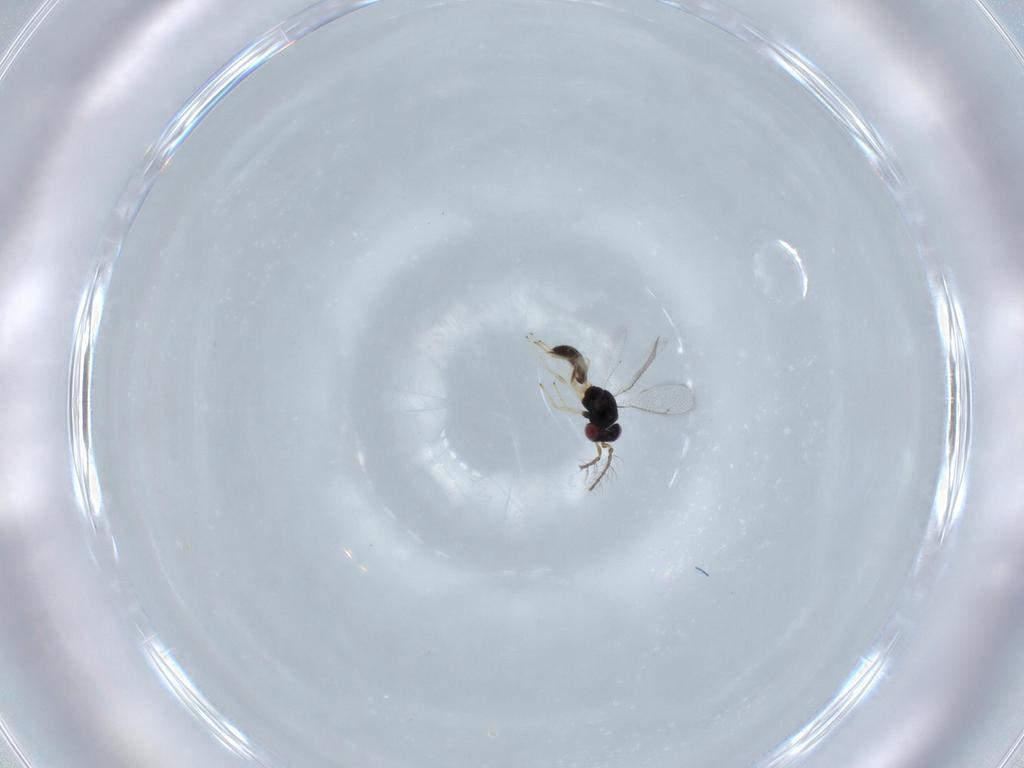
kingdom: Animalia
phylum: Arthropoda
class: Insecta
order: Hymenoptera
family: Eulophidae
